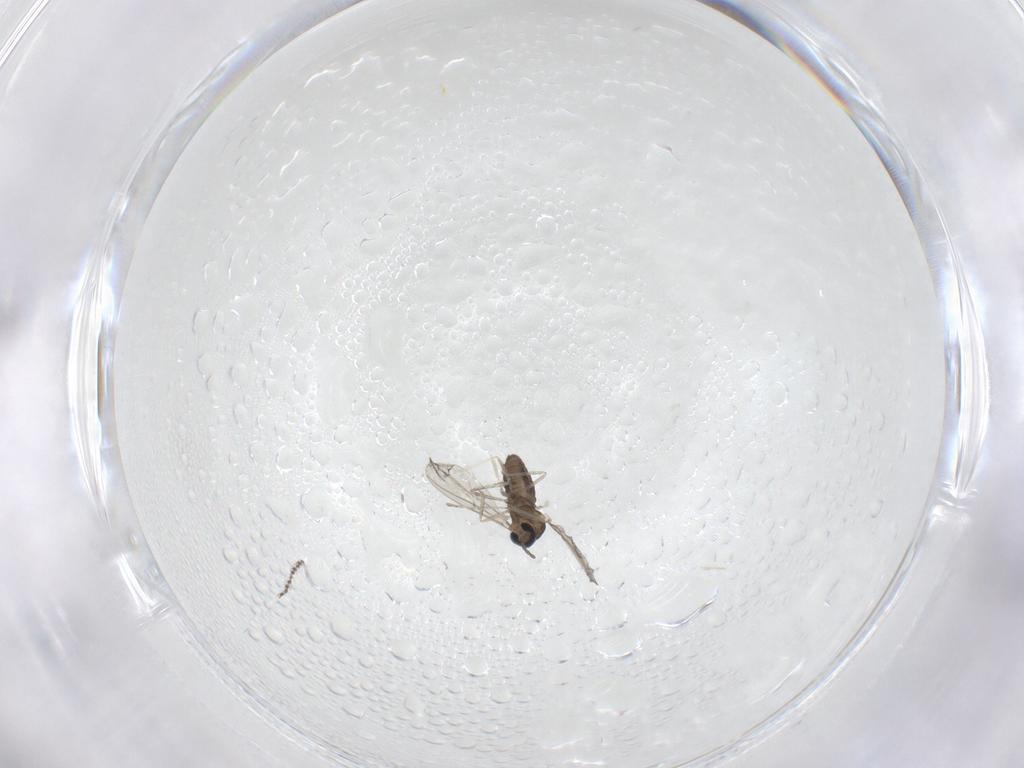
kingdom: Animalia
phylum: Arthropoda
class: Insecta
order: Diptera
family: Cecidomyiidae
